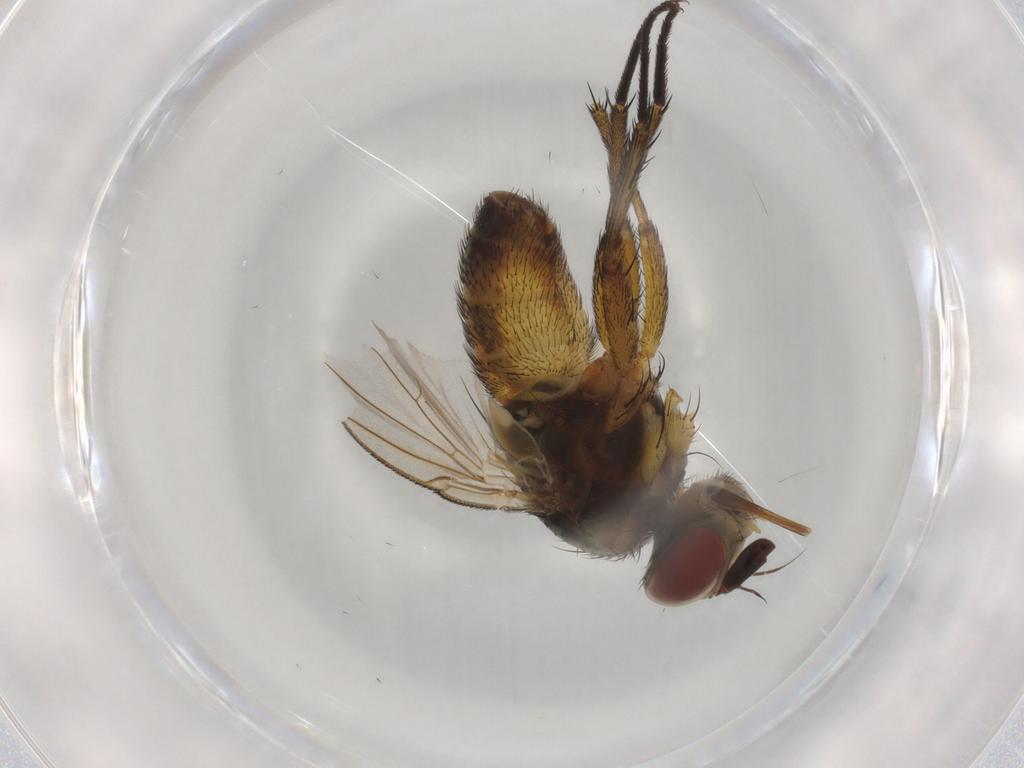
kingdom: Animalia
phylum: Arthropoda
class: Insecta
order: Diptera
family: Tachinidae
